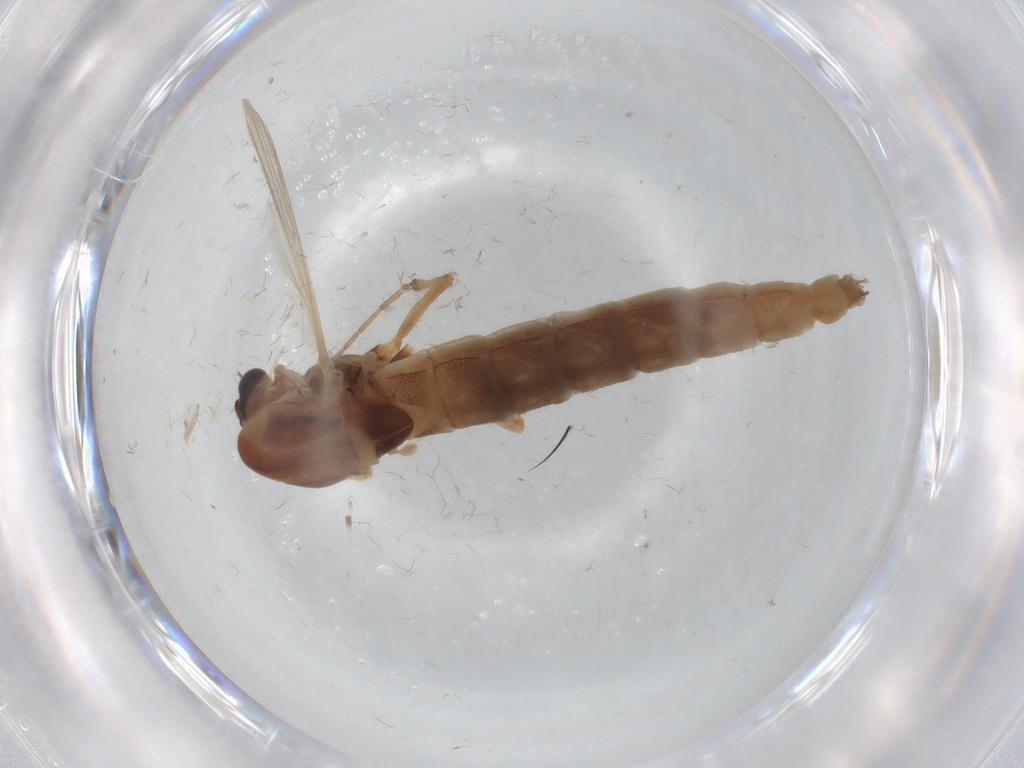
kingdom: Animalia
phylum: Arthropoda
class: Insecta
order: Diptera
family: Chironomidae
